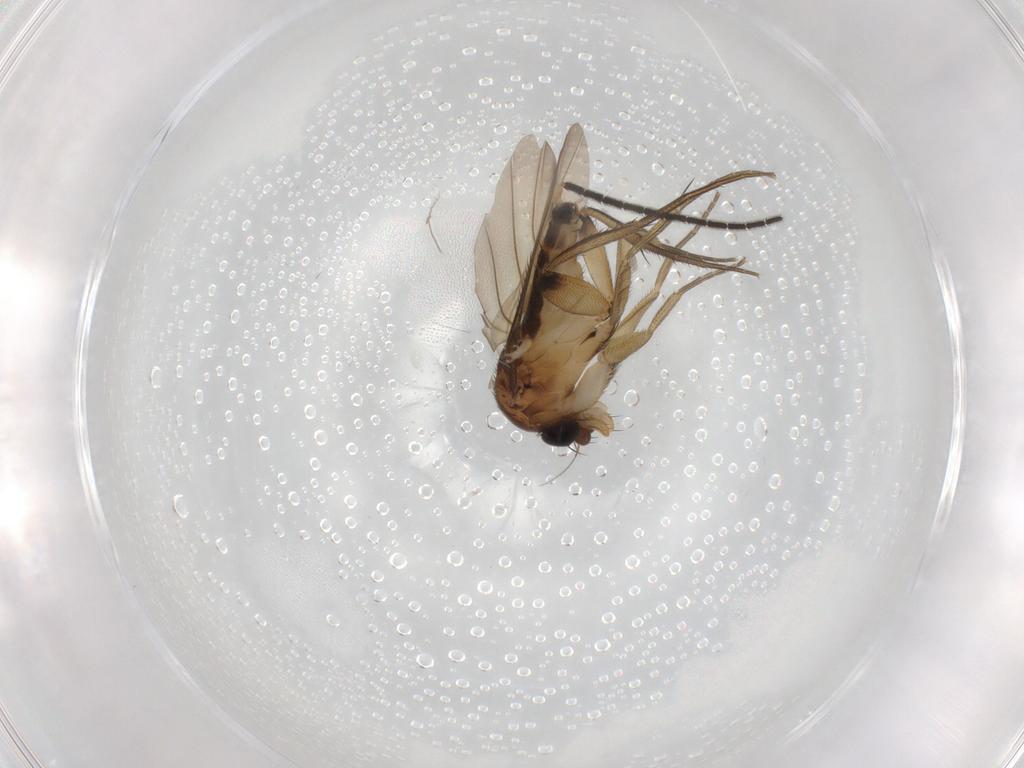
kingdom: Animalia
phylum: Arthropoda
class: Insecta
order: Diptera
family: Phoridae
